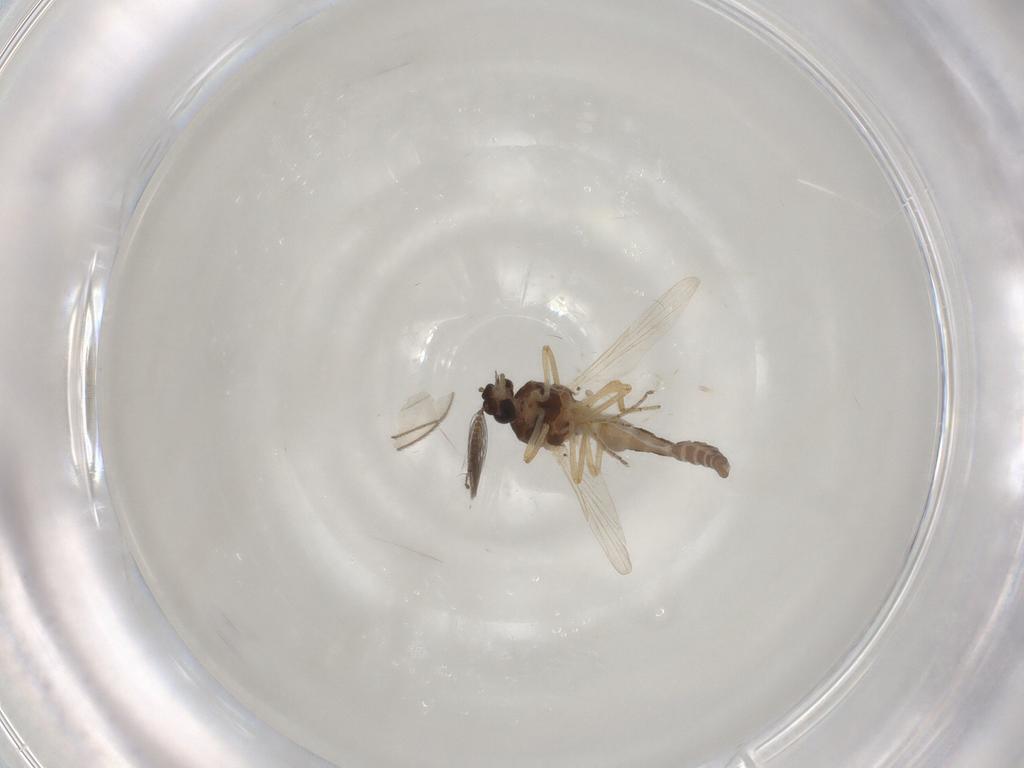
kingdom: Animalia
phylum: Arthropoda
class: Insecta
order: Diptera
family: Ceratopogonidae
